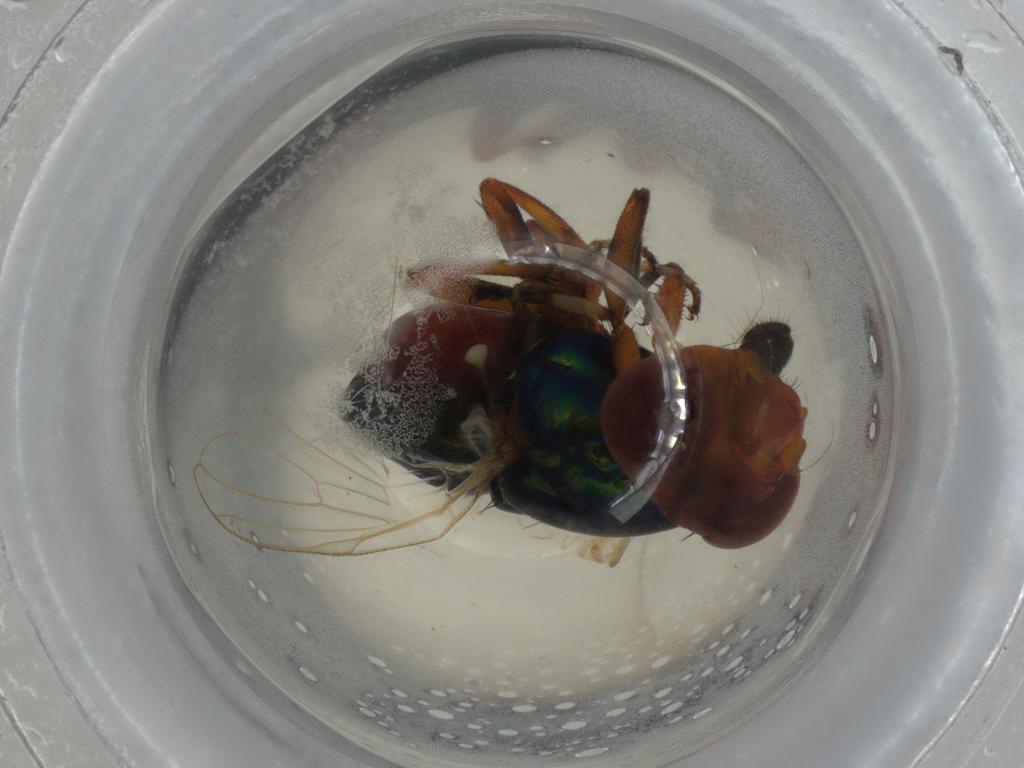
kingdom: Animalia
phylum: Arthropoda
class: Insecta
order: Diptera
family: Ulidiidae
